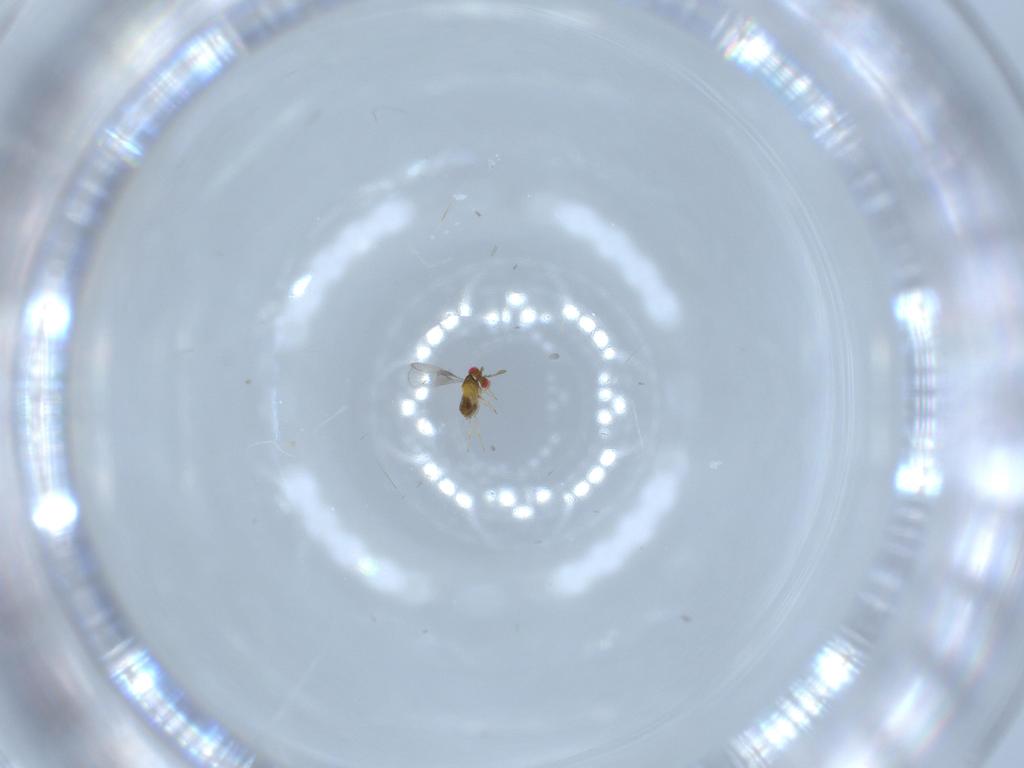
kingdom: Animalia
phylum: Arthropoda
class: Insecta
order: Hymenoptera
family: Trichogrammatidae
